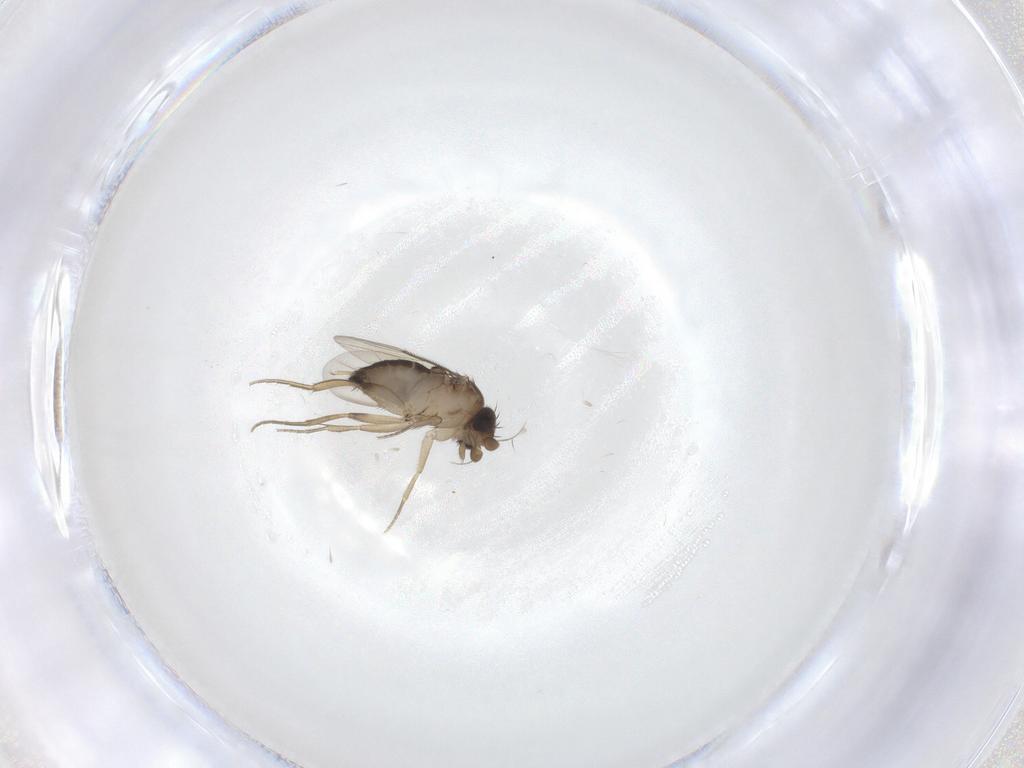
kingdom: Animalia
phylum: Arthropoda
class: Insecta
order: Diptera
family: Phoridae
